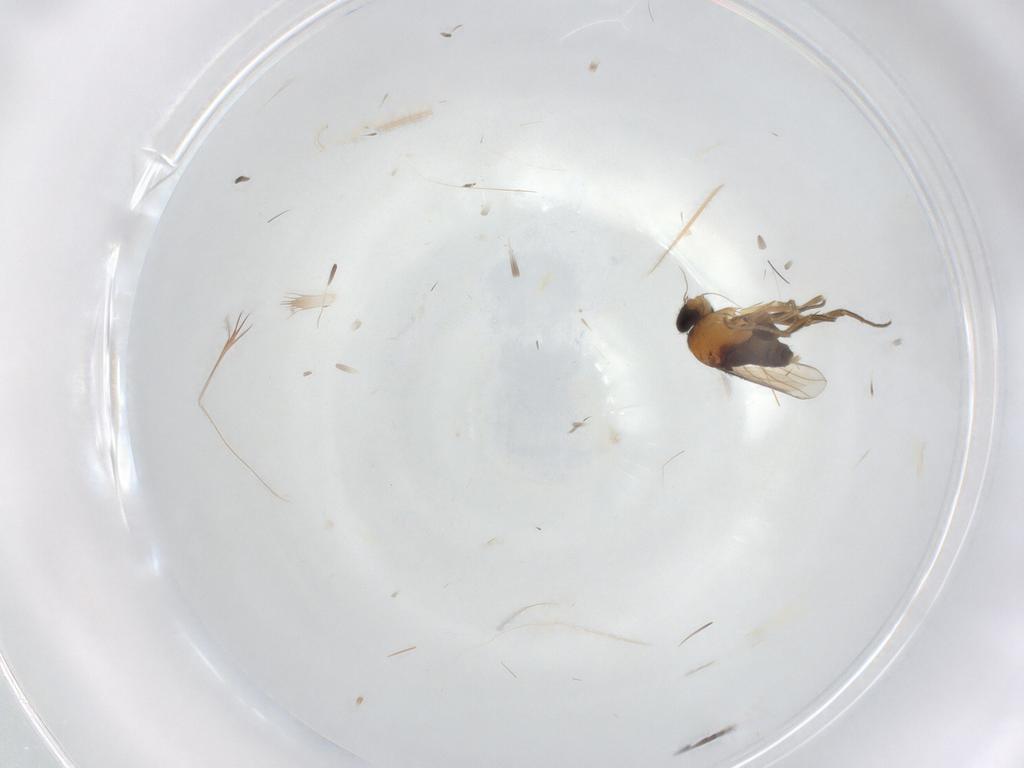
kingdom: Animalia
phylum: Arthropoda
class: Insecta
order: Diptera
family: Phoridae
